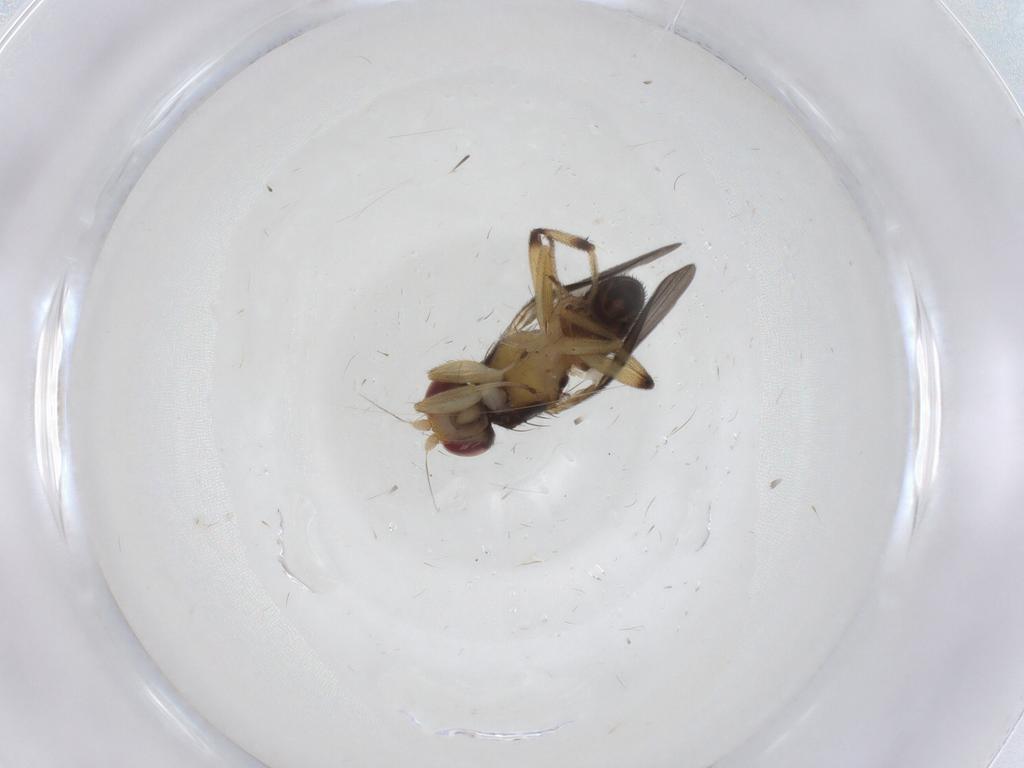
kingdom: Animalia
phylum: Arthropoda
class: Insecta
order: Diptera
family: Clusiidae
